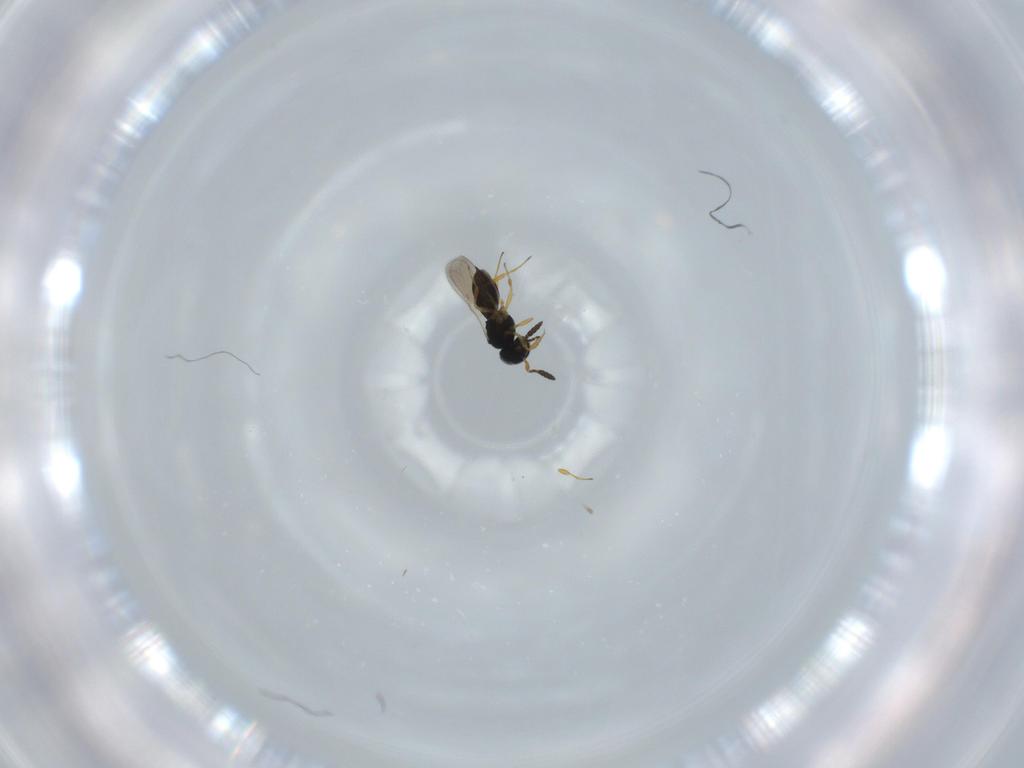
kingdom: Animalia
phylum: Arthropoda
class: Insecta
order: Hymenoptera
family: Scelionidae
